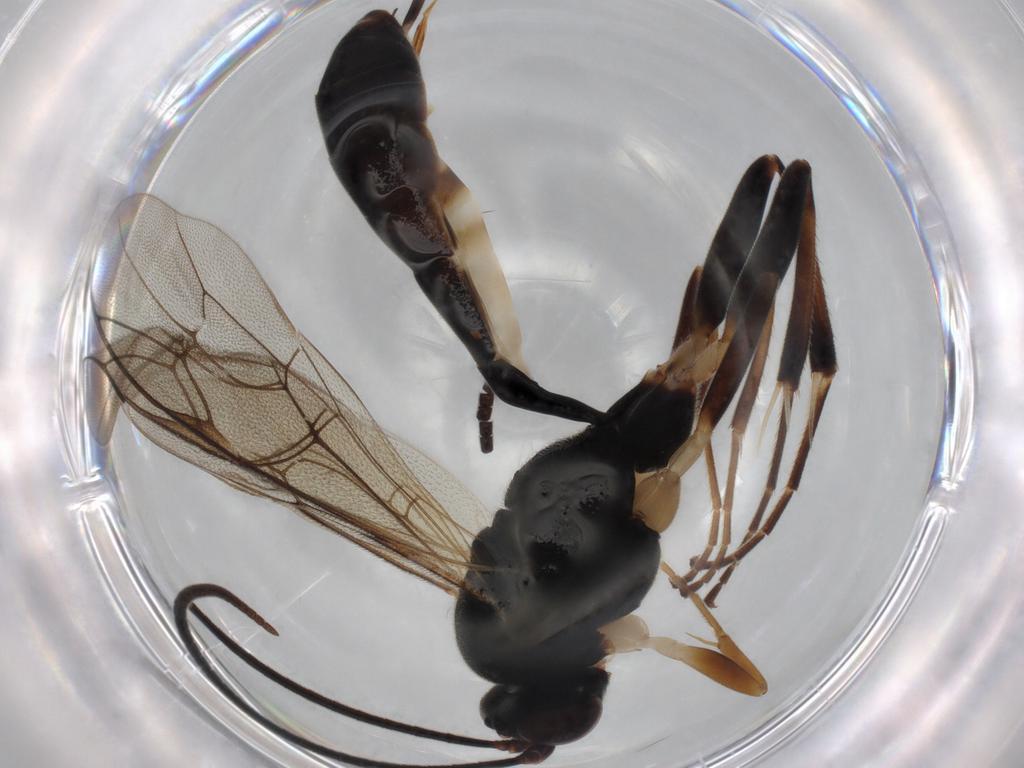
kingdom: Animalia
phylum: Arthropoda
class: Insecta
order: Hymenoptera
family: Ichneumonidae
